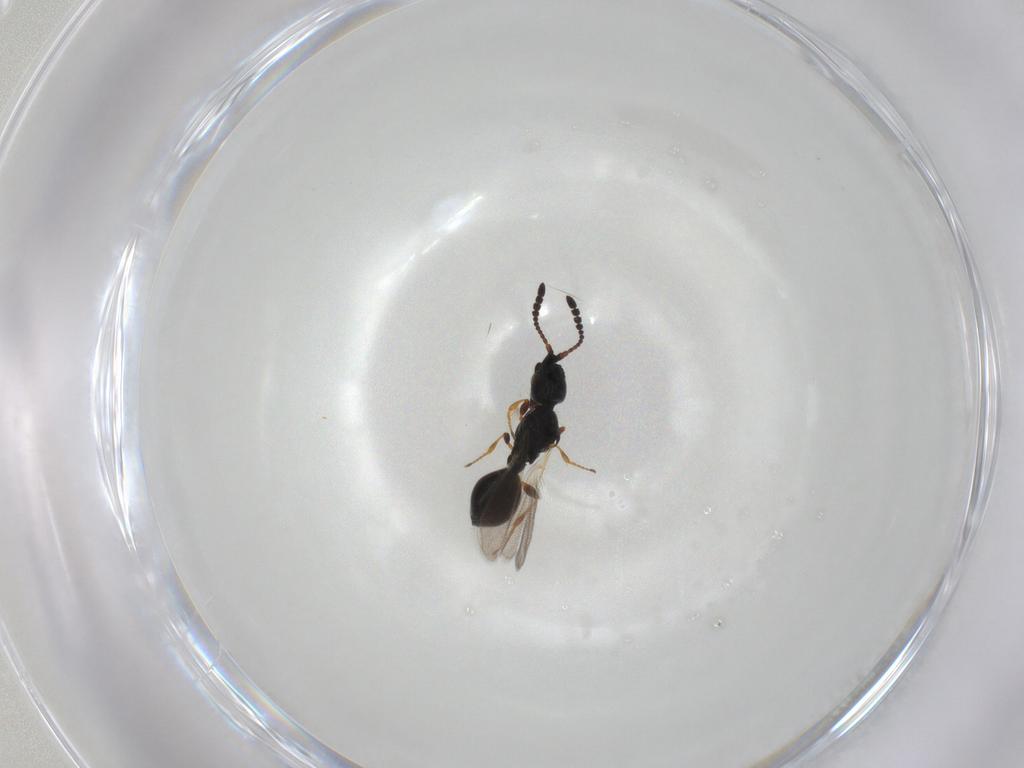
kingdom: Animalia
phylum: Arthropoda
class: Insecta
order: Hymenoptera
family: Diapriidae
